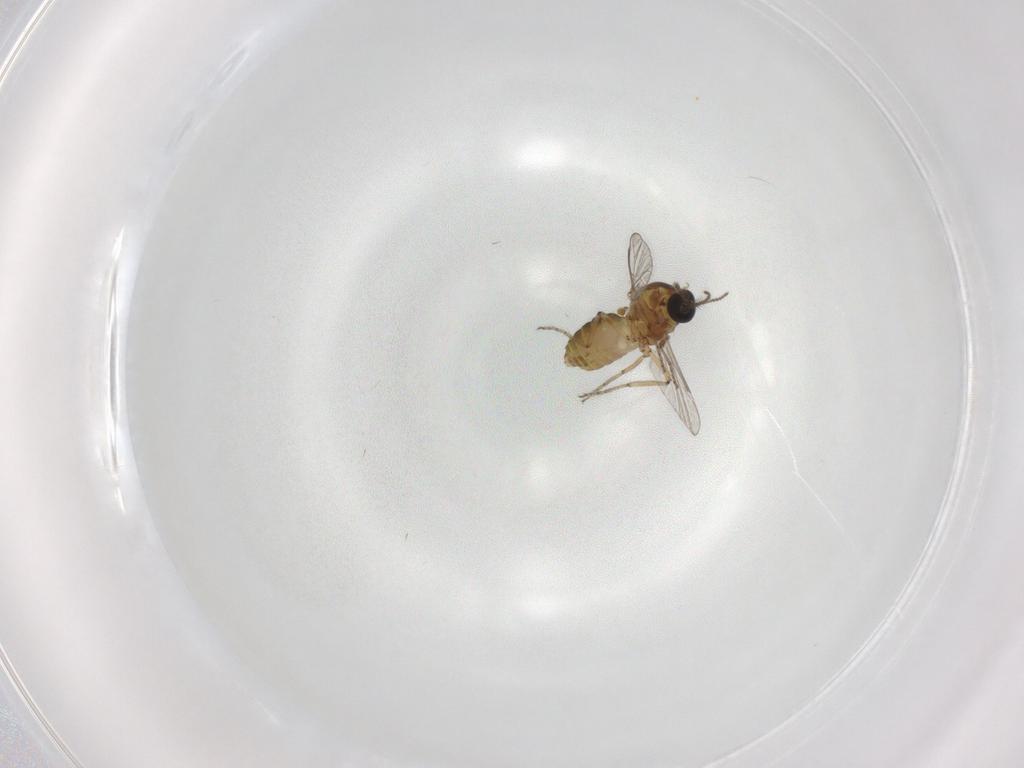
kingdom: Animalia
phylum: Arthropoda
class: Insecta
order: Diptera
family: Ceratopogonidae
